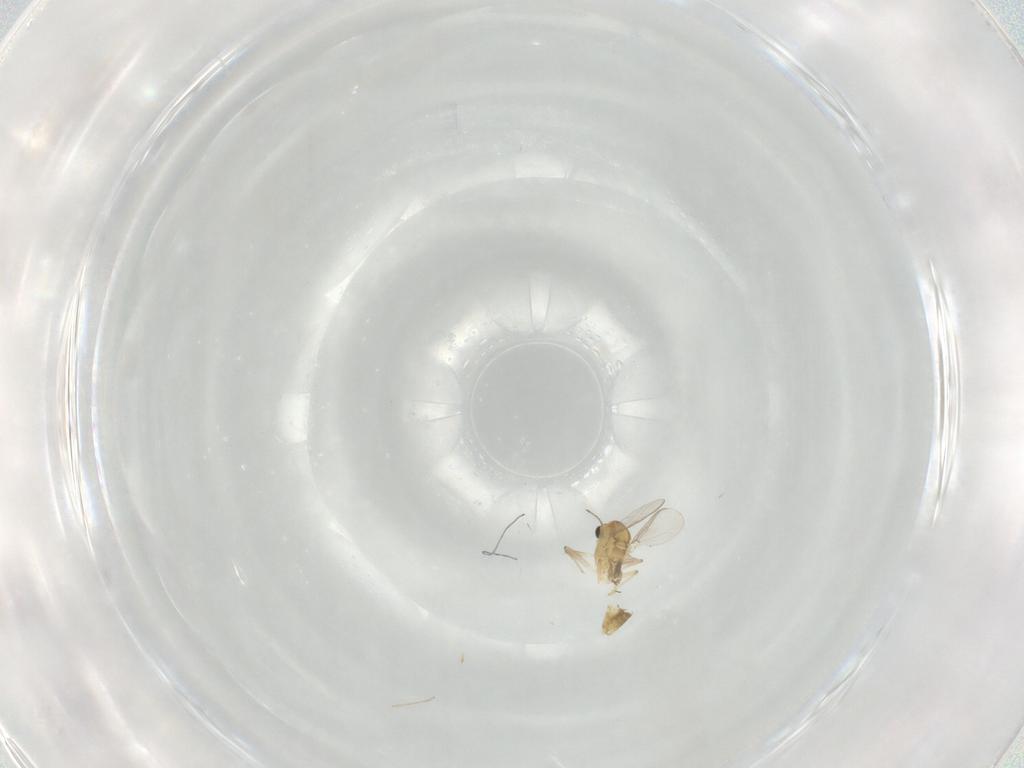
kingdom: Animalia
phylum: Arthropoda
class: Insecta
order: Diptera
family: Chironomidae
